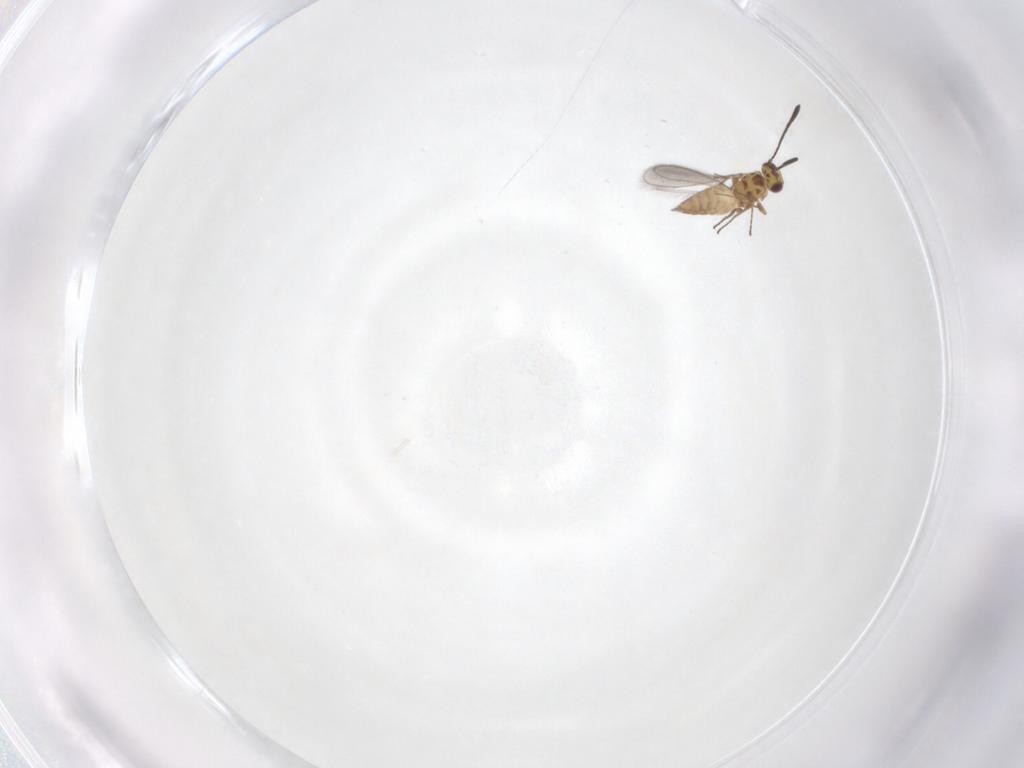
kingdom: Animalia
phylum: Arthropoda
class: Insecta
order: Hymenoptera
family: Mymaridae
